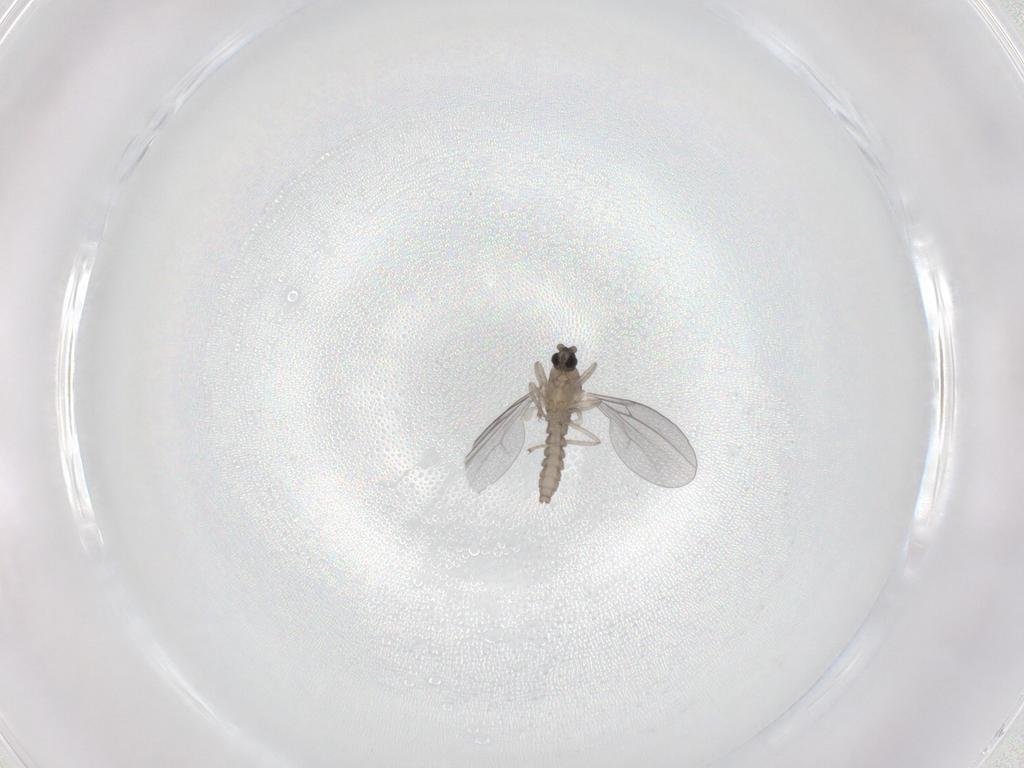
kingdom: Animalia
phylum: Arthropoda
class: Insecta
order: Diptera
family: Cecidomyiidae
